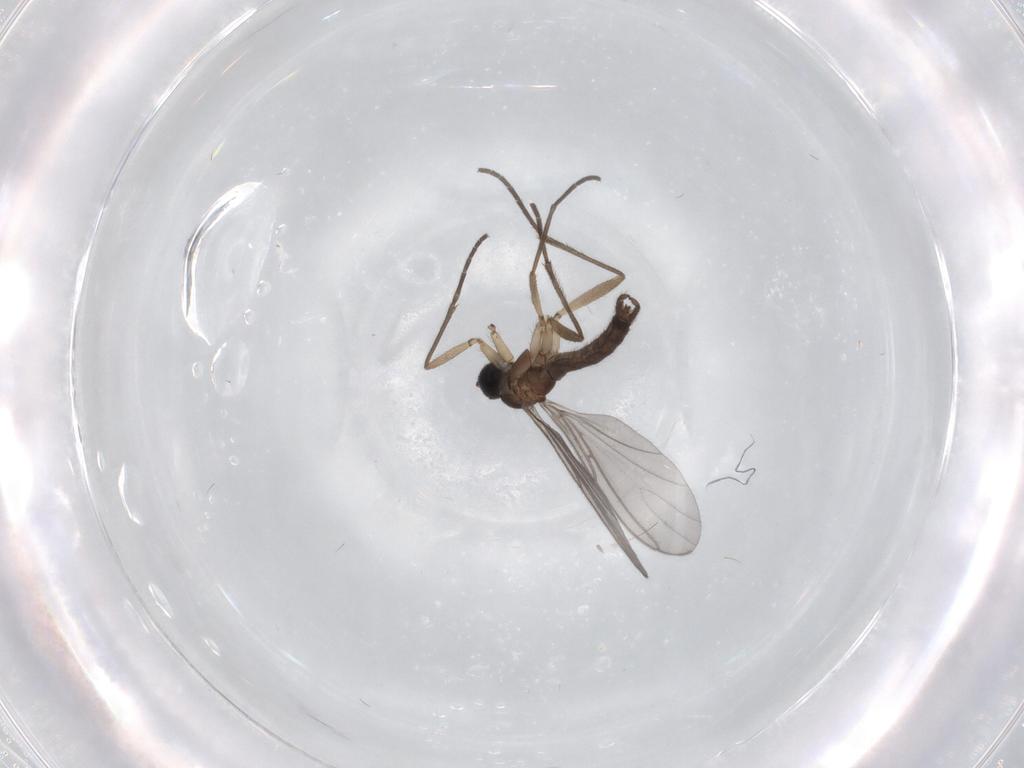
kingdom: Animalia
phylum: Arthropoda
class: Insecta
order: Diptera
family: Sciaridae
